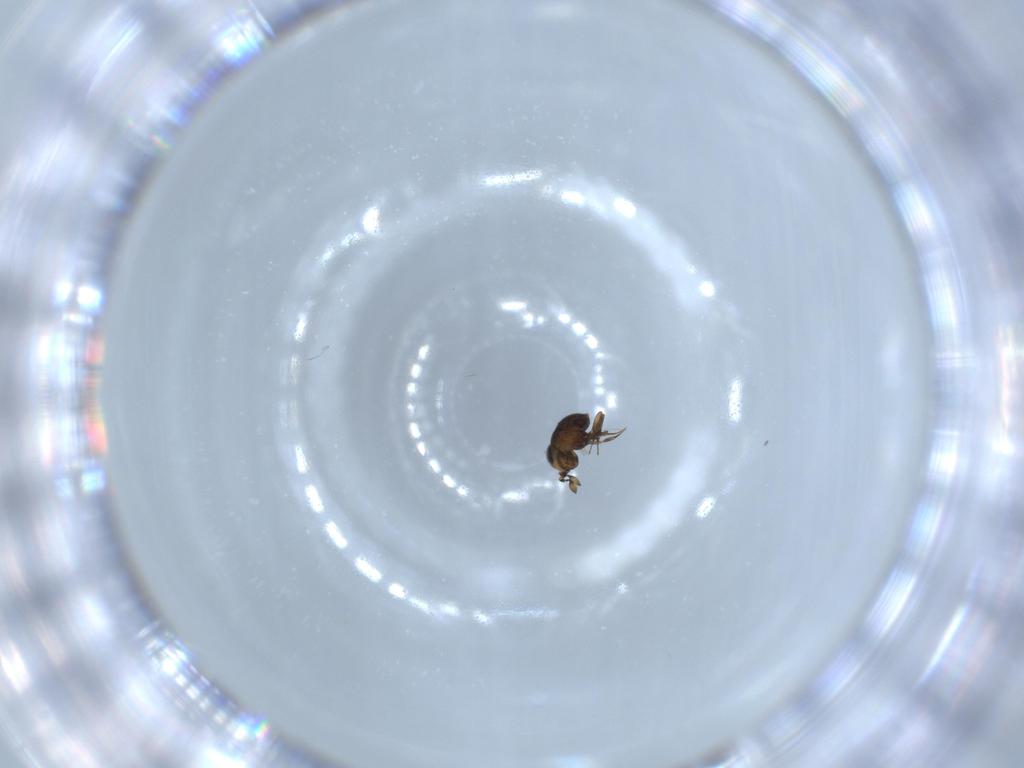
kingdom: Animalia
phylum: Arthropoda
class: Insecta
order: Hymenoptera
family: Scelionidae
